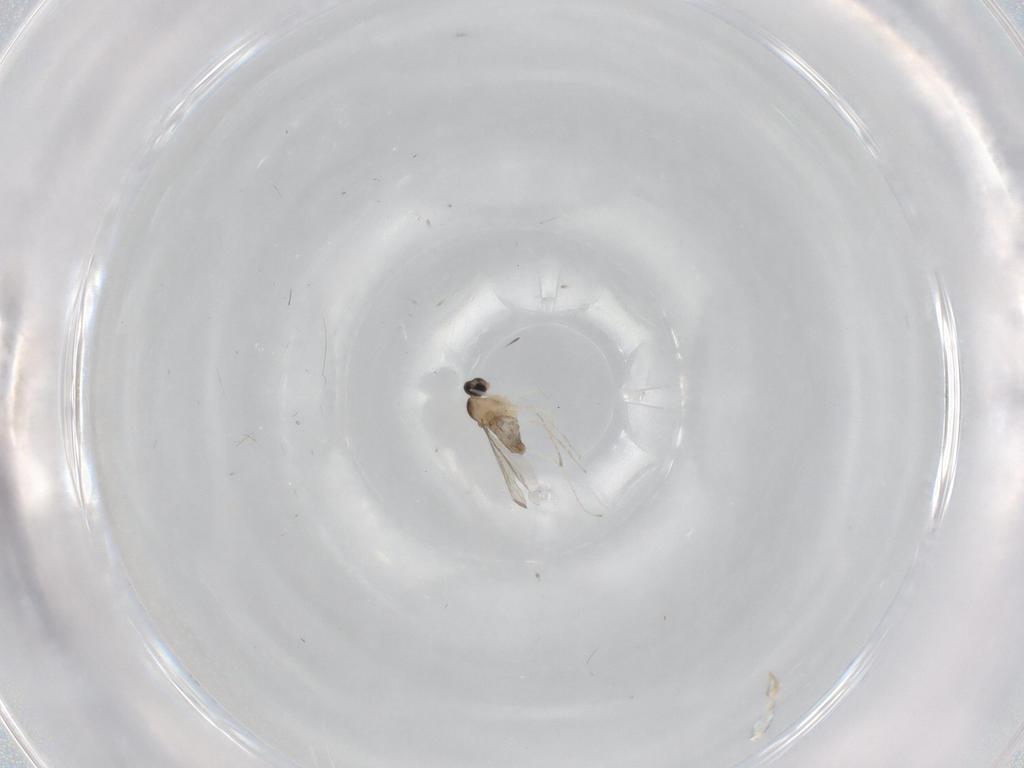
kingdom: Animalia
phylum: Arthropoda
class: Insecta
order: Diptera
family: Cecidomyiidae
